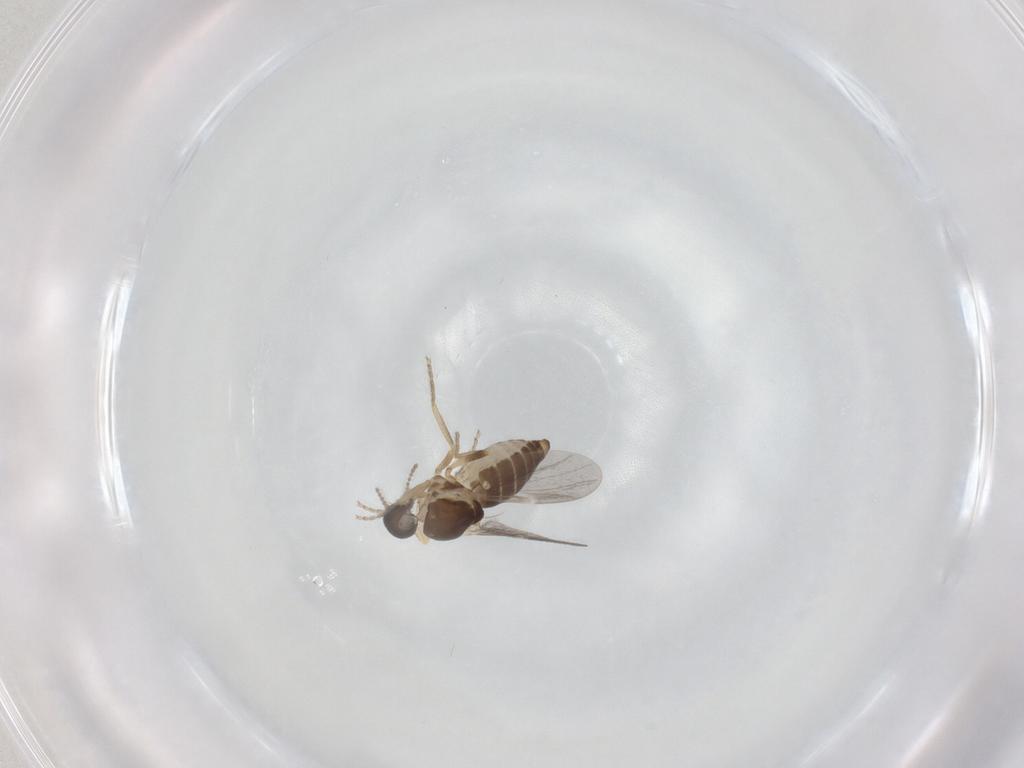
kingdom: Animalia
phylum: Arthropoda
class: Insecta
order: Diptera
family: Ceratopogonidae
